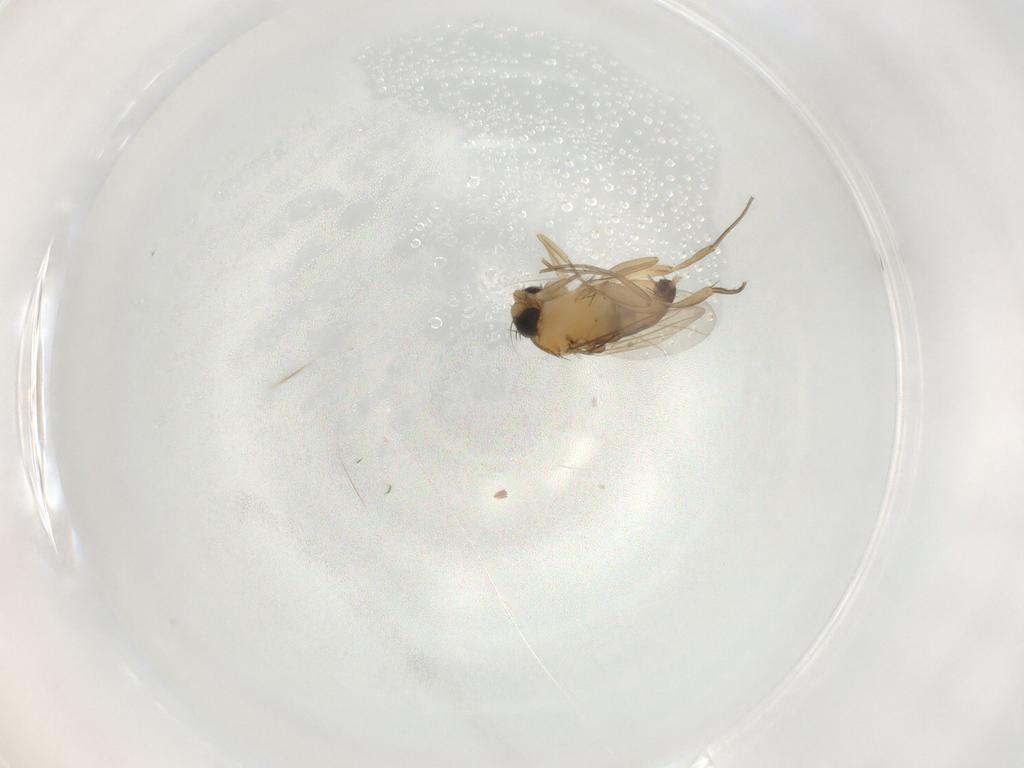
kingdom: Animalia
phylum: Arthropoda
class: Insecta
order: Diptera
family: Phoridae
